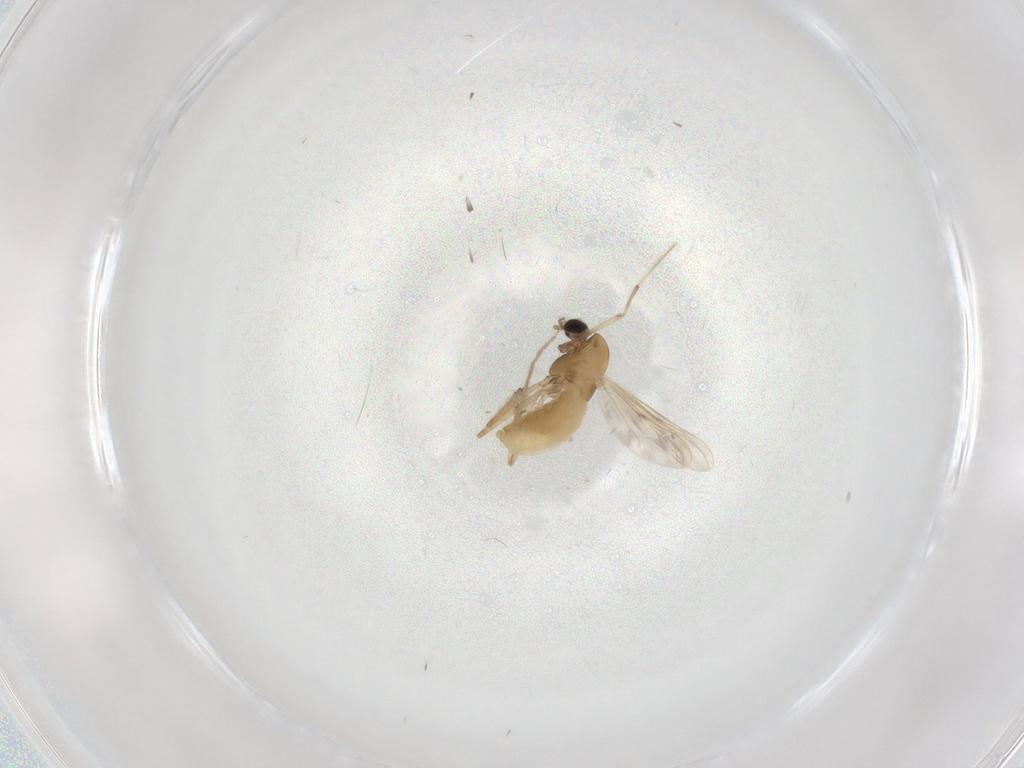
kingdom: Animalia
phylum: Arthropoda
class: Insecta
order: Diptera
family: Chironomidae
